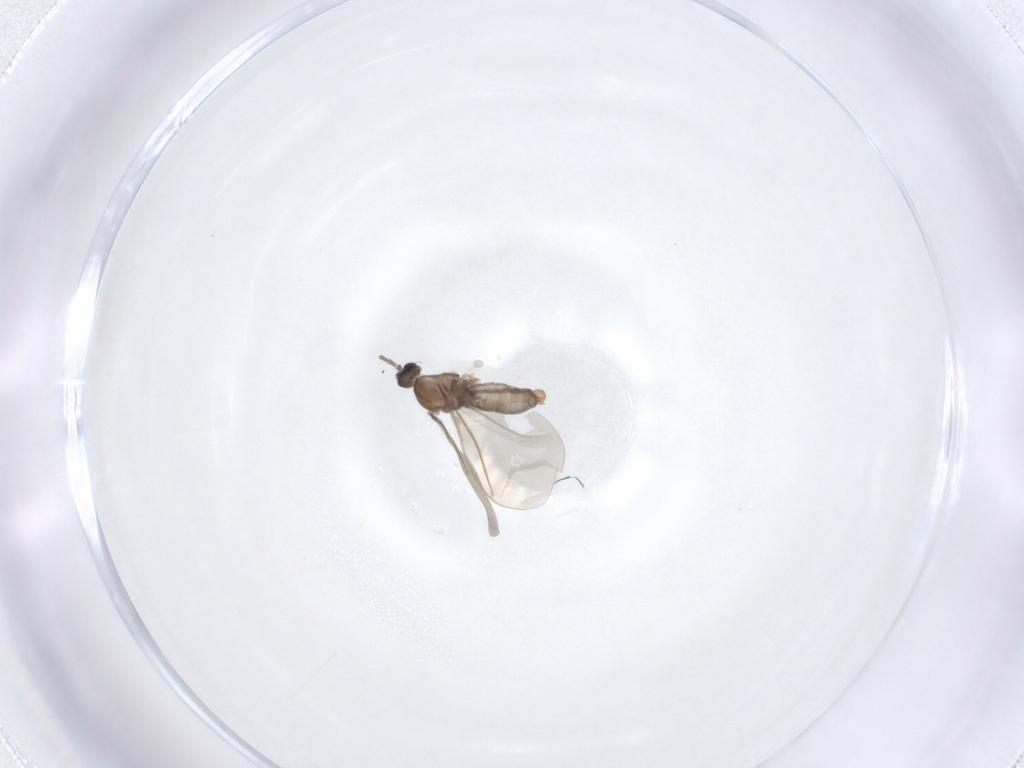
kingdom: Animalia
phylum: Arthropoda
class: Insecta
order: Diptera
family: Cecidomyiidae
